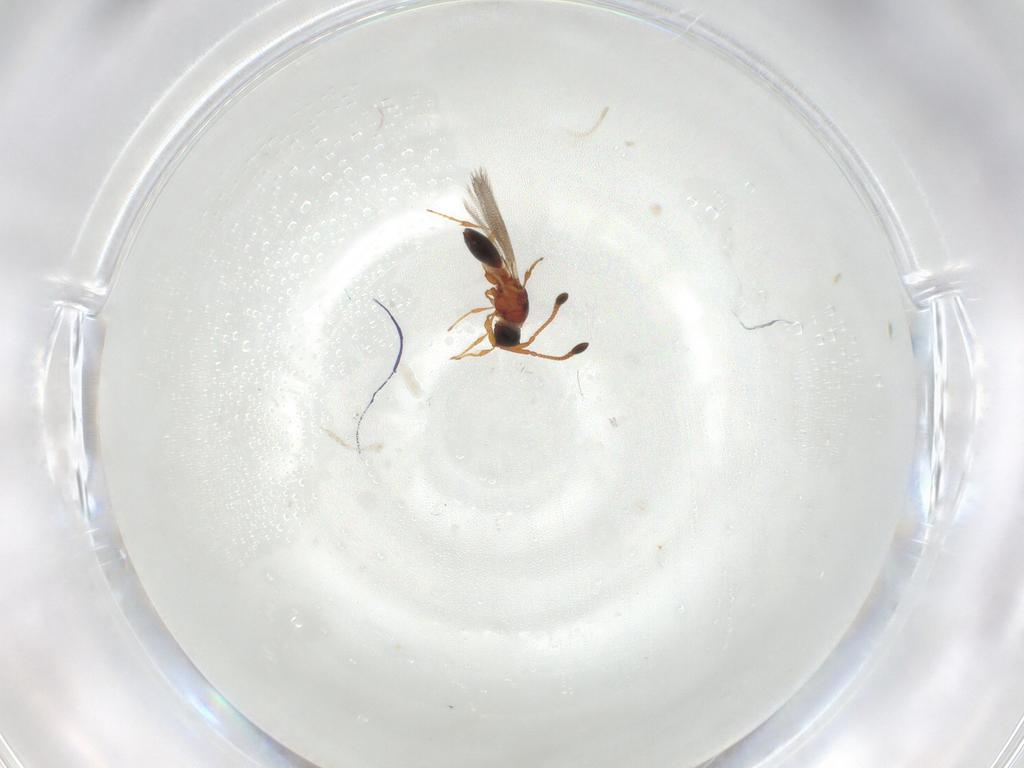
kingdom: Animalia
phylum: Arthropoda
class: Insecta
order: Hymenoptera
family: Diapriidae
